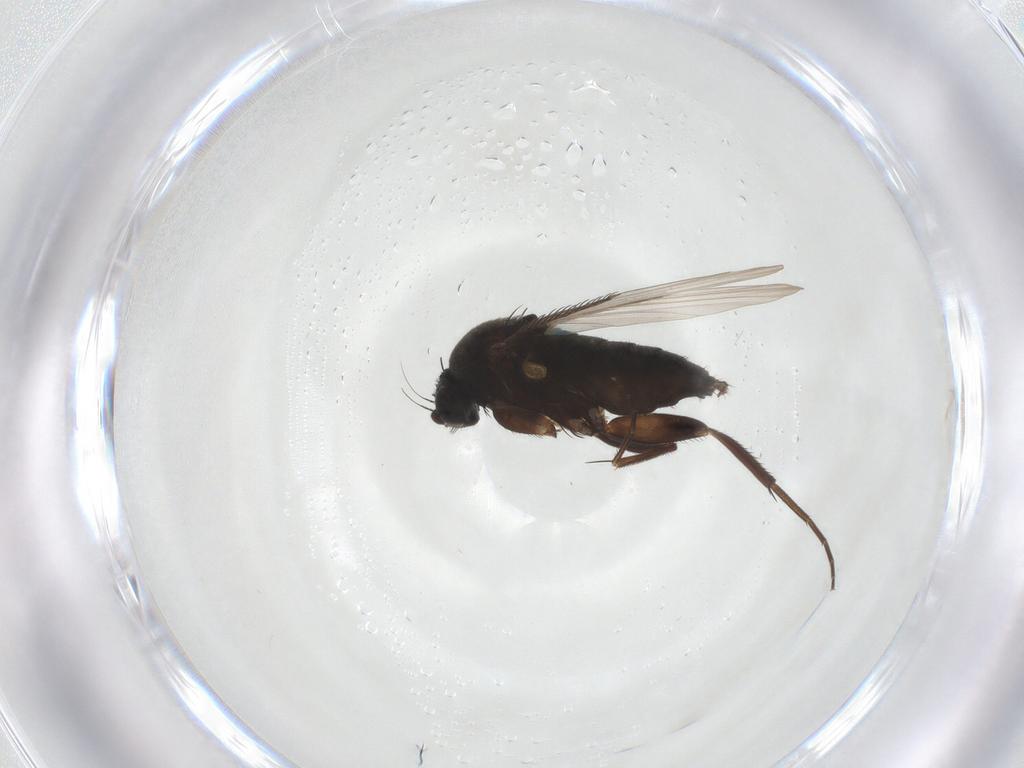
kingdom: Animalia
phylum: Arthropoda
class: Insecta
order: Diptera
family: Phoridae
